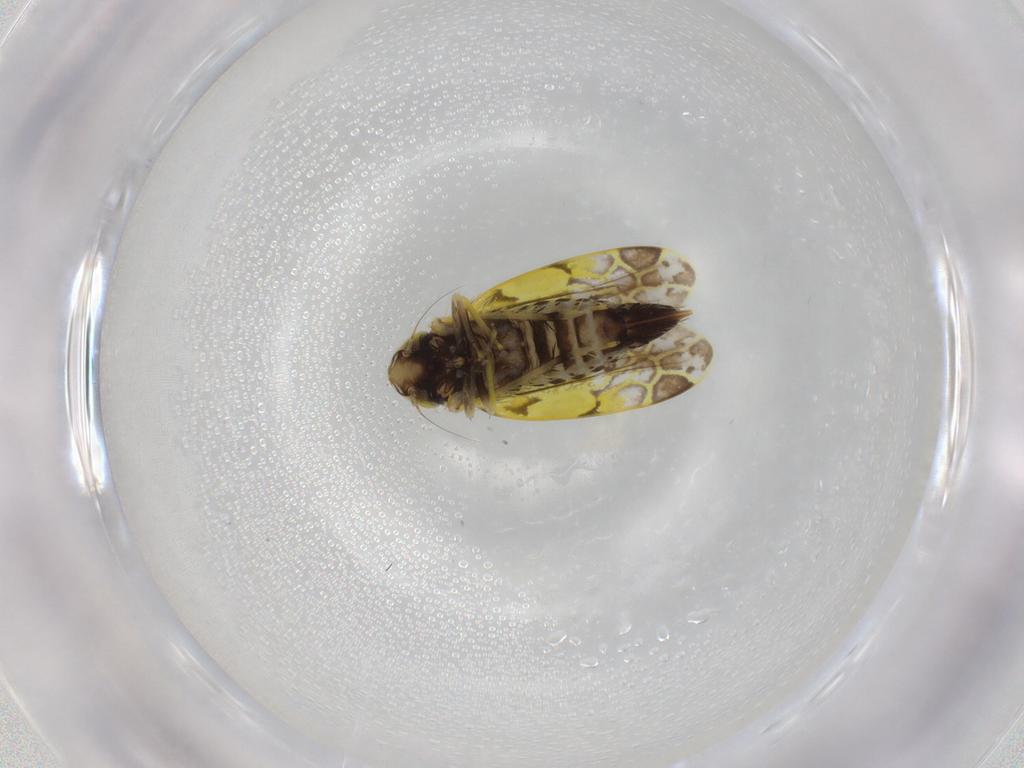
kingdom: Animalia
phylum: Arthropoda
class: Insecta
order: Hemiptera
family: Cicadellidae
